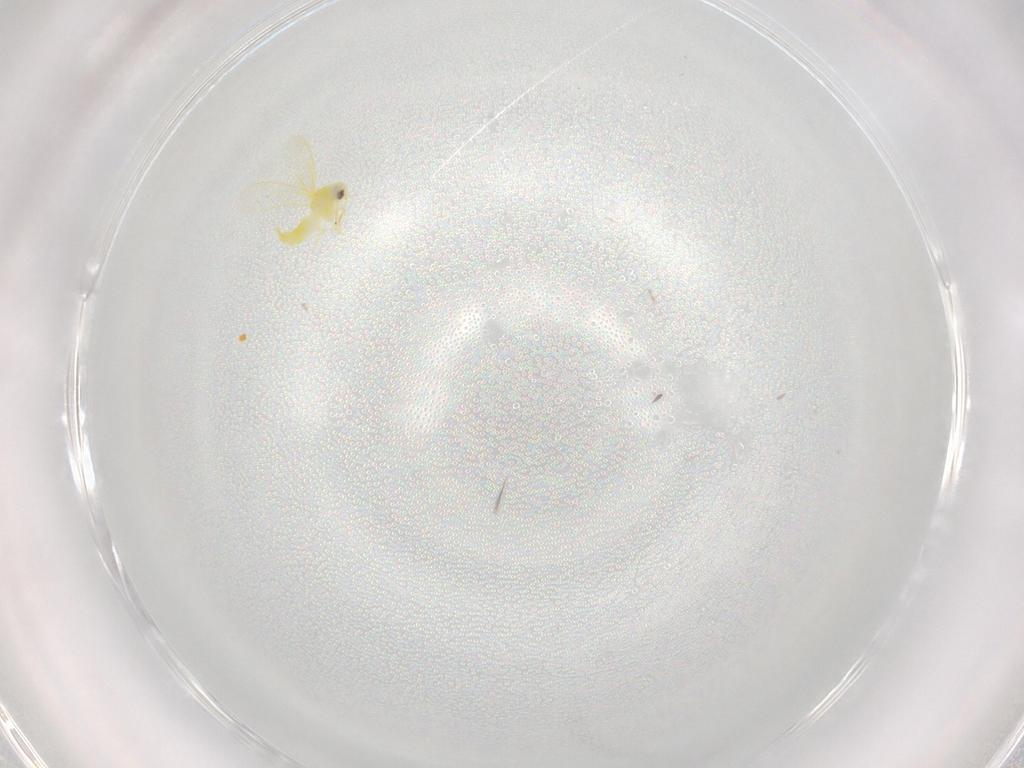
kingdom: Animalia
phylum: Arthropoda
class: Insecta
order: Hemiptera
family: Aleyrodidae
